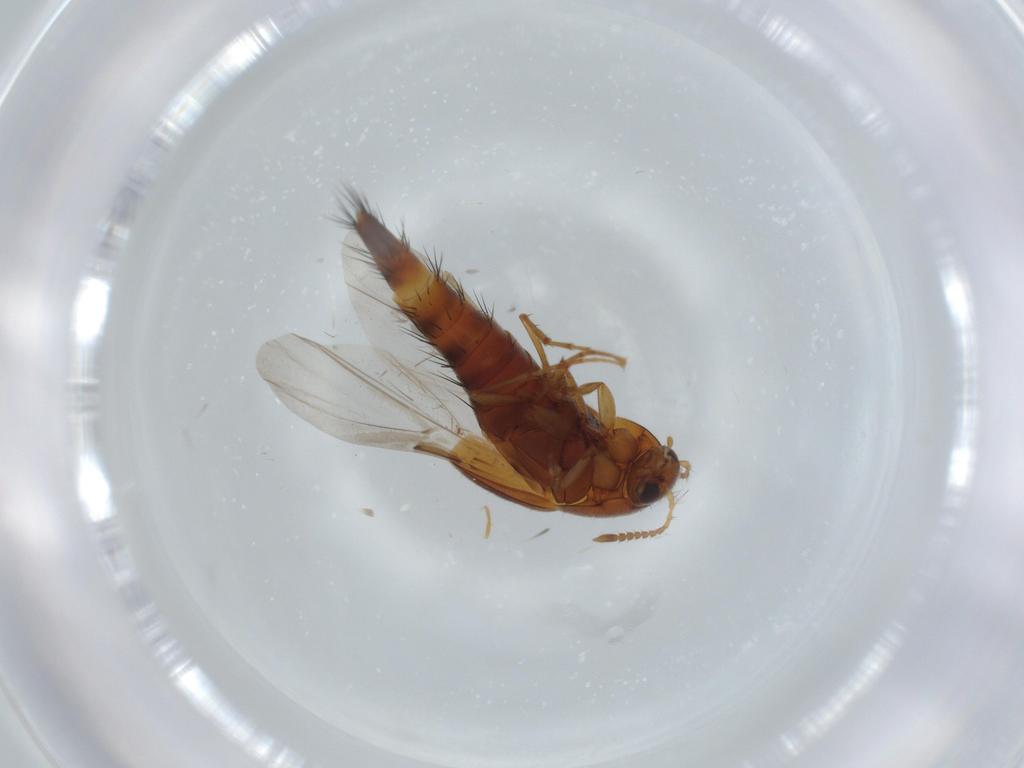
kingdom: Animalia
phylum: Arthropoda
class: Insecta
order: Coleoptera
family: Staphylinidae
